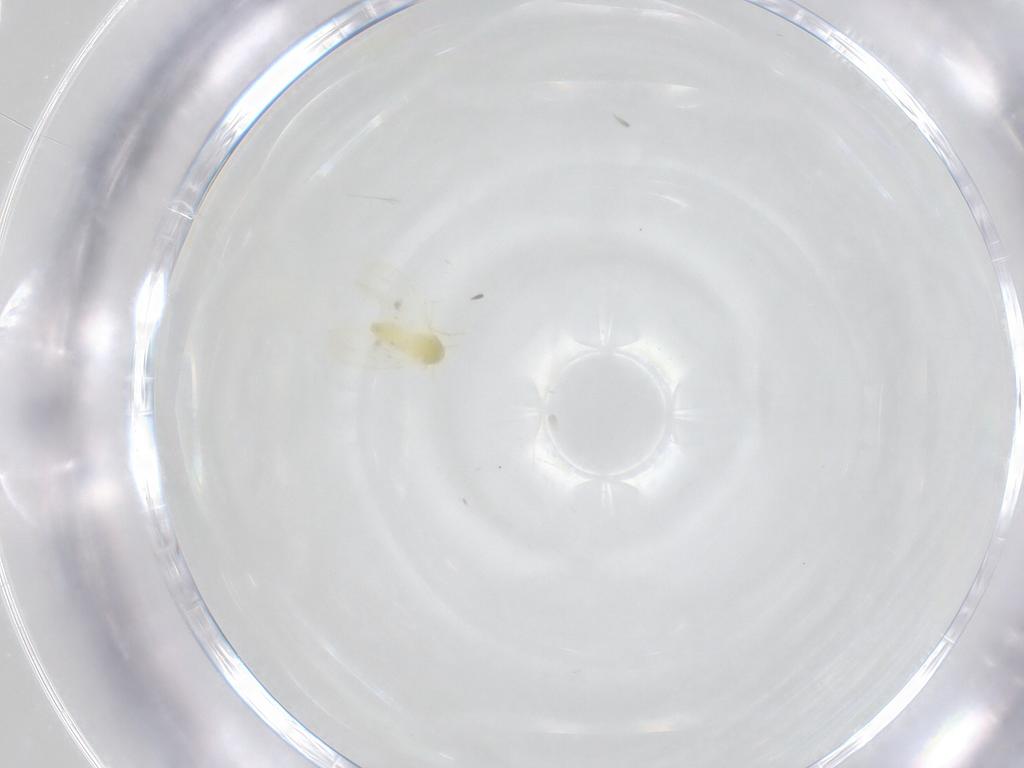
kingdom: Animalia
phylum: Arthropoda
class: Insecta
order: Hemiptera
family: Aleyrodidae
